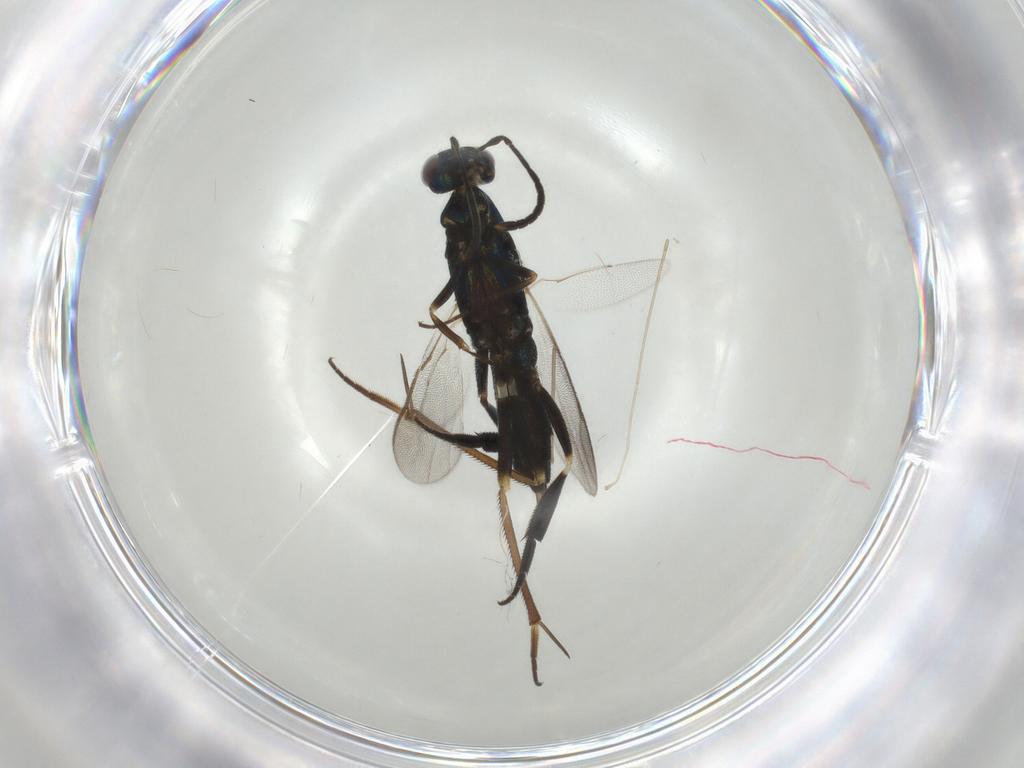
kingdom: Animalia
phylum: Arthropoda
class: Insecta
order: Hymenoptera
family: Eupelmidae
